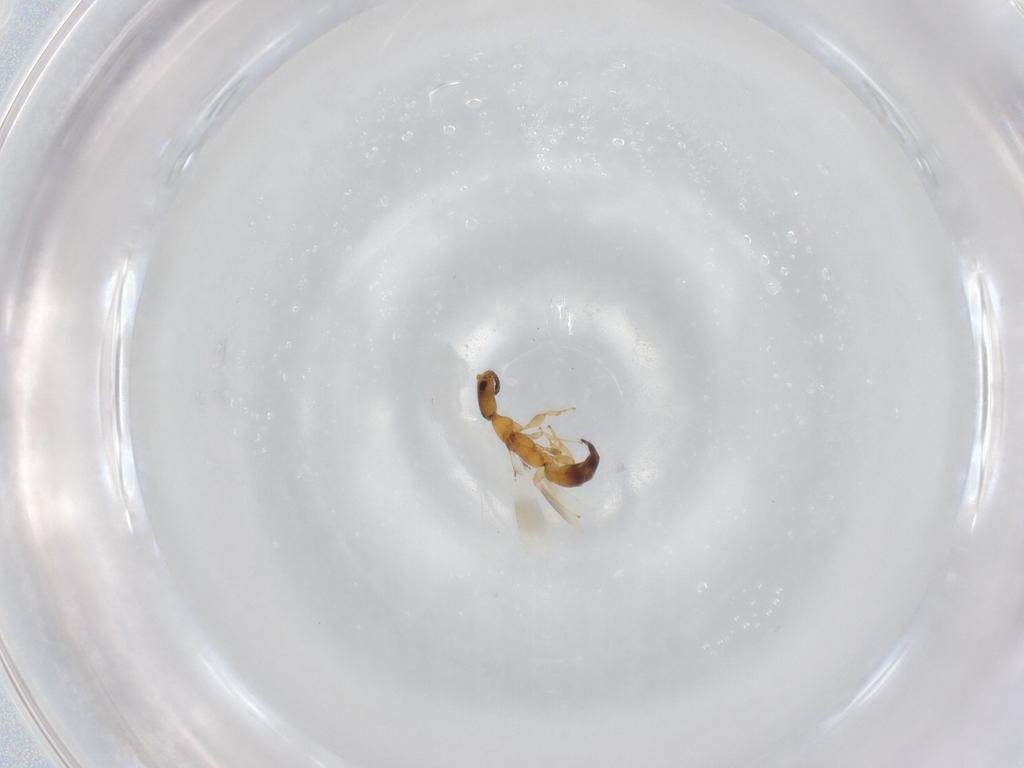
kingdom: Animalia
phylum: Arthropoda
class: Insecta
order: Hymenoptera
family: Bethylidae
